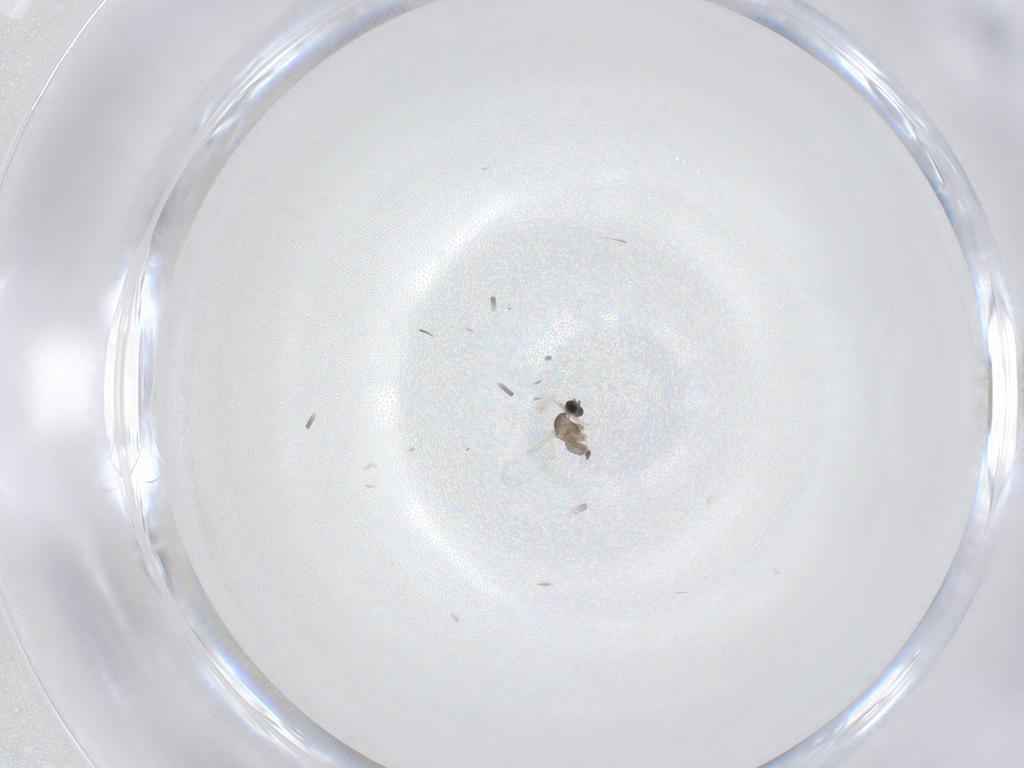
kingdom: Animalia
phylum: Arthropoda
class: Insecta
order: Diptera
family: Cecidomyiidae
